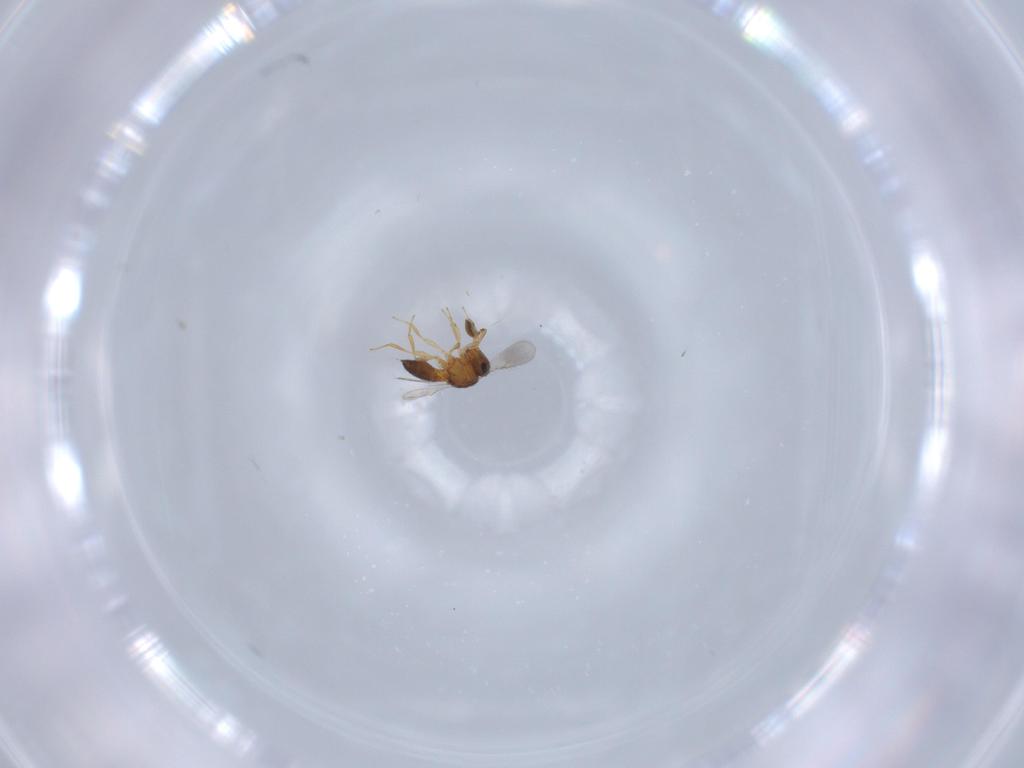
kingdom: Animalia
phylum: Arthropoda
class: Insecta
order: Hymenoptera
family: Scelionidae
